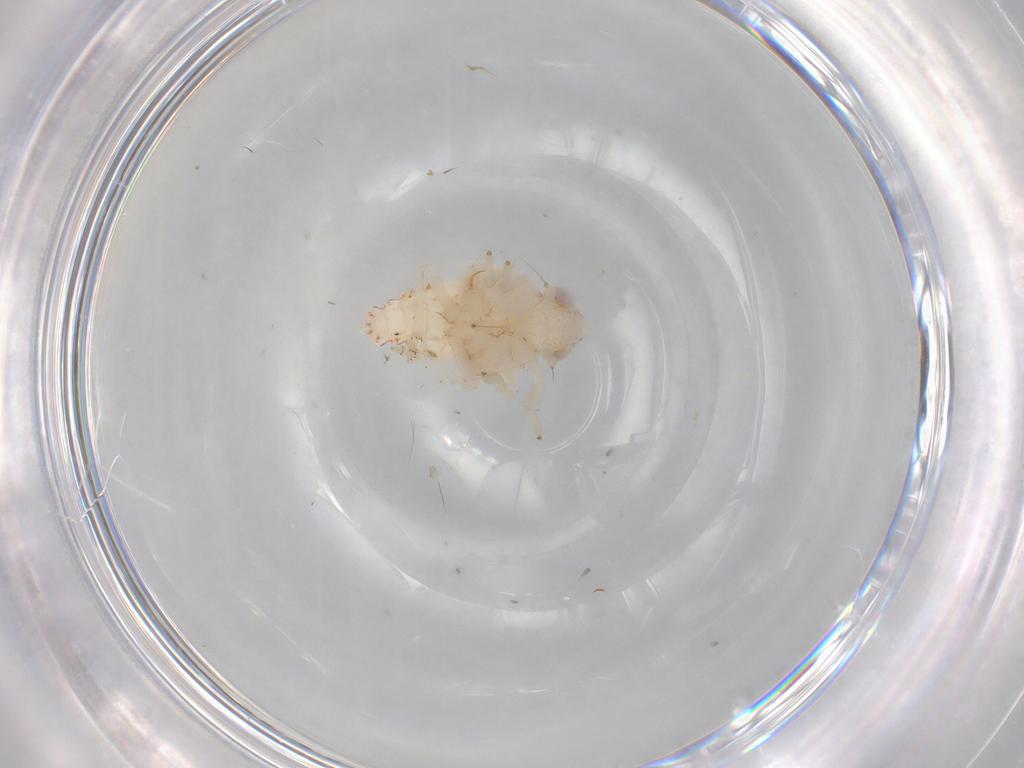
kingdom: Animalia
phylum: Arthropoda
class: Insecta
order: Hemiptera
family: Nogodinidae
